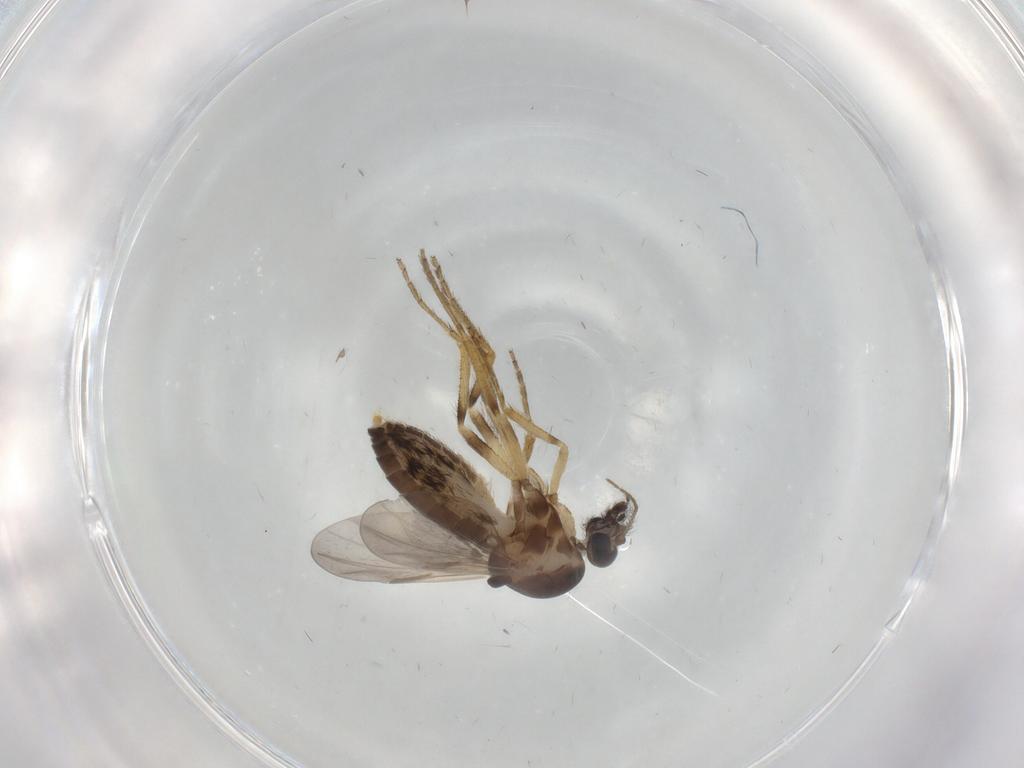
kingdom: Animalia
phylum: Arthropoda
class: Insecta
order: Diptera
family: Ceratopogonidae
